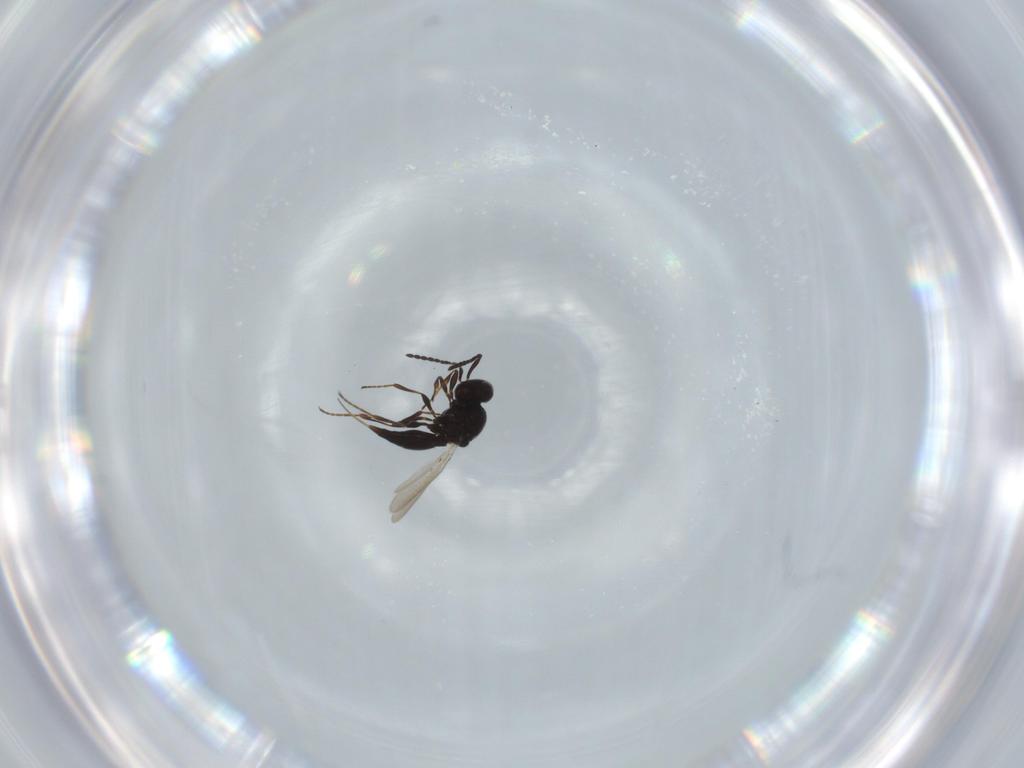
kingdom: Animalia
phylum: Arthropoda
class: Insecta
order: Hymenoptera
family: Platygastridae
